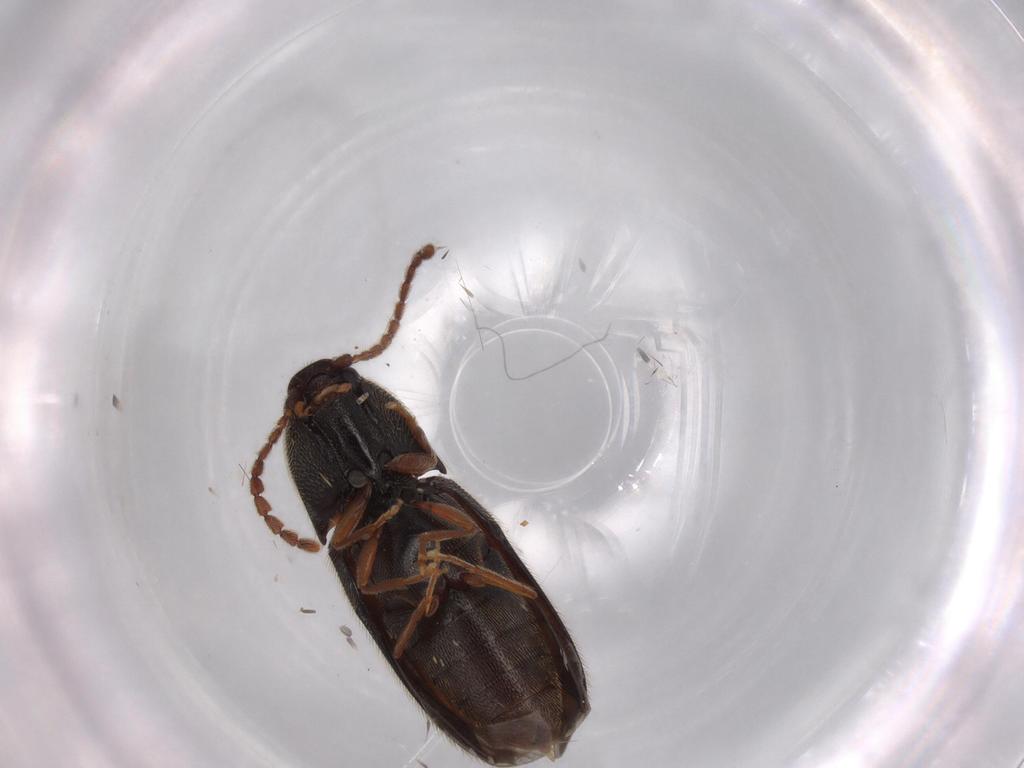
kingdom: Animalia
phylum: Arthropoda
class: Insecta
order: Coleoptera
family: Elateridae
